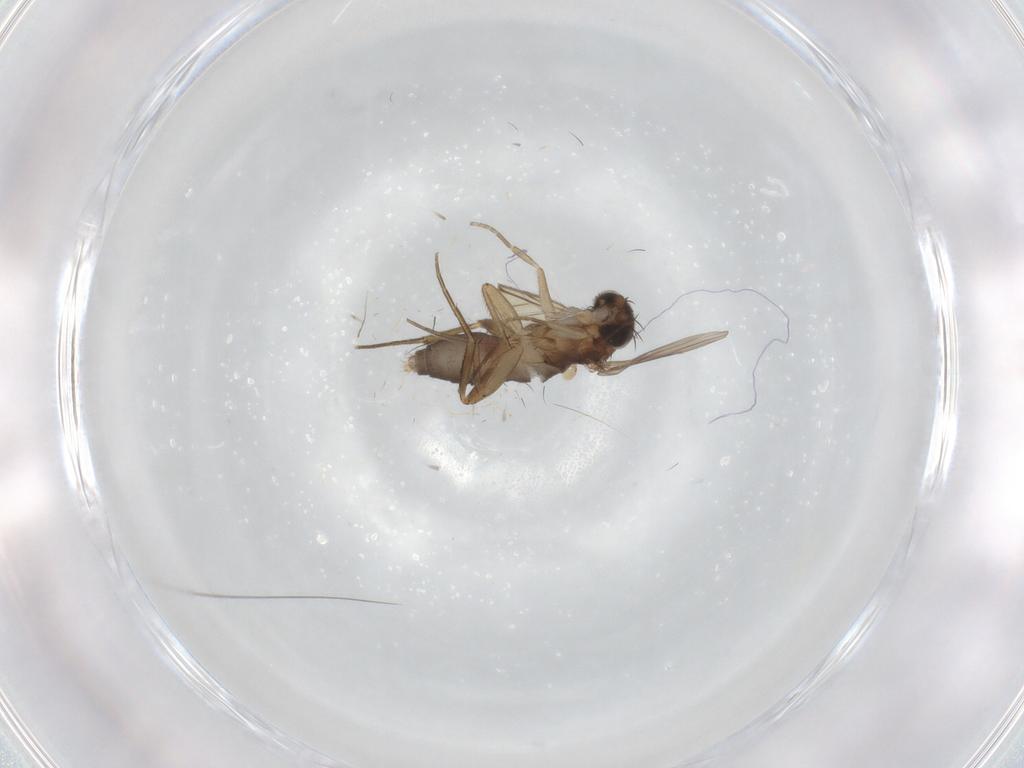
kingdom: Animalia
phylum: Arthropoda
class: Insecta
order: Diptera
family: Phoridae
